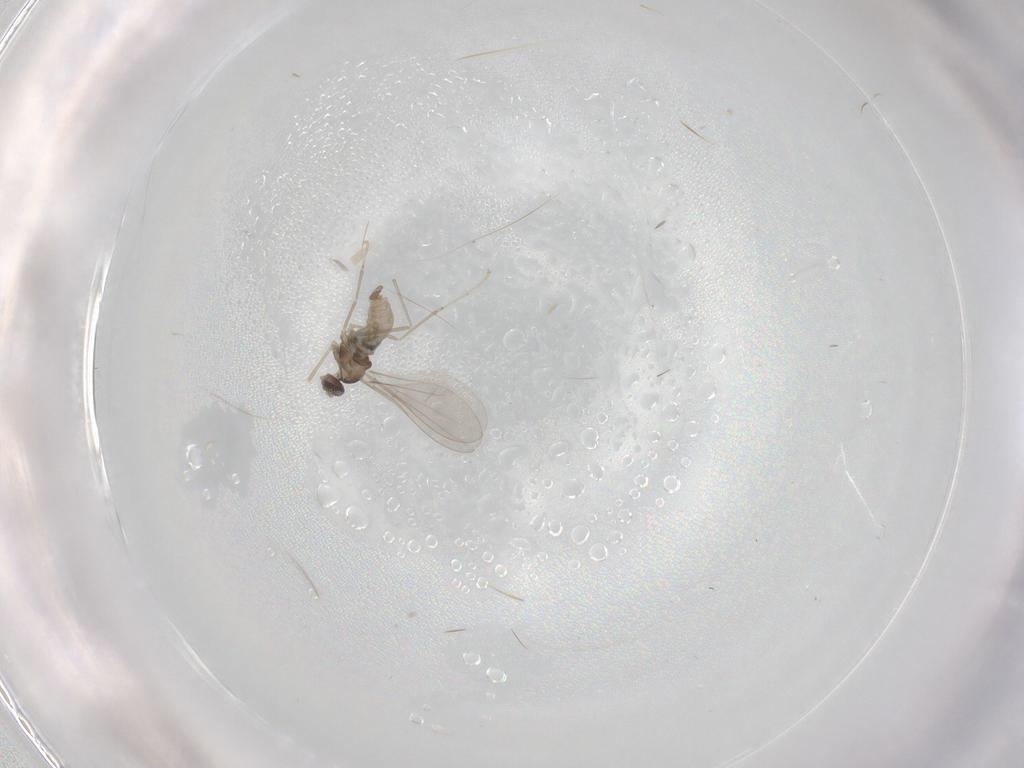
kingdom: Animalia
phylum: Arthropoda
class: Insecta
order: Diptera
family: Cecidomyiidae
